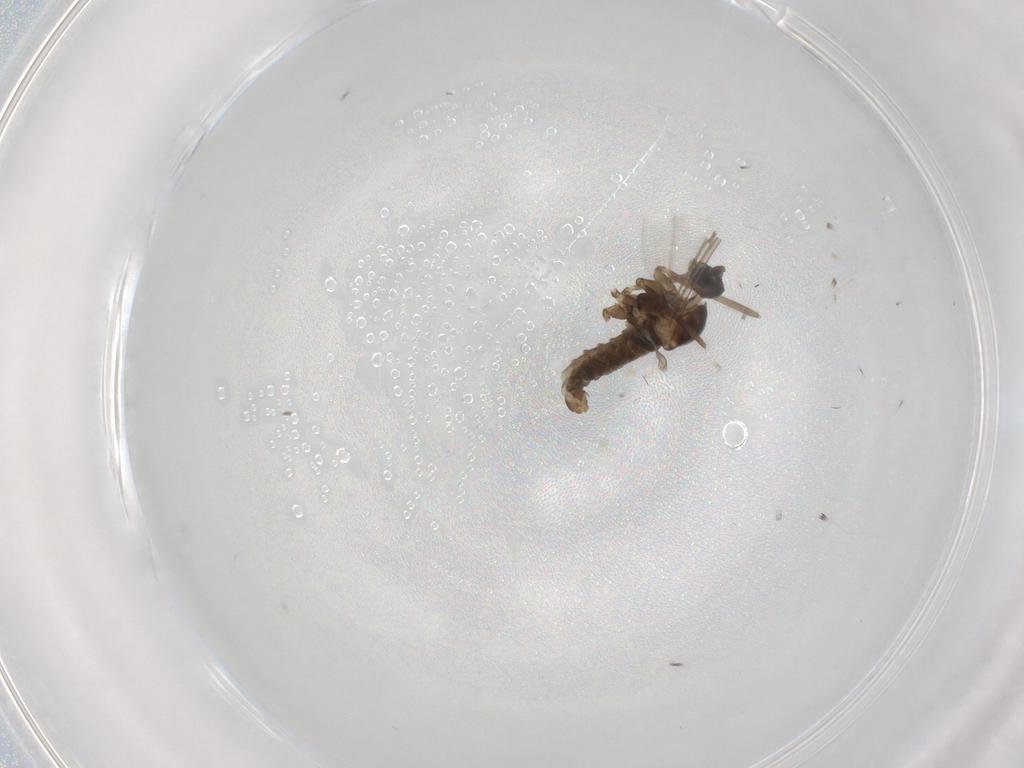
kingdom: Animalia
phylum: Arthropoda
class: Insecta
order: Diptera
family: Cecidomyiidae
